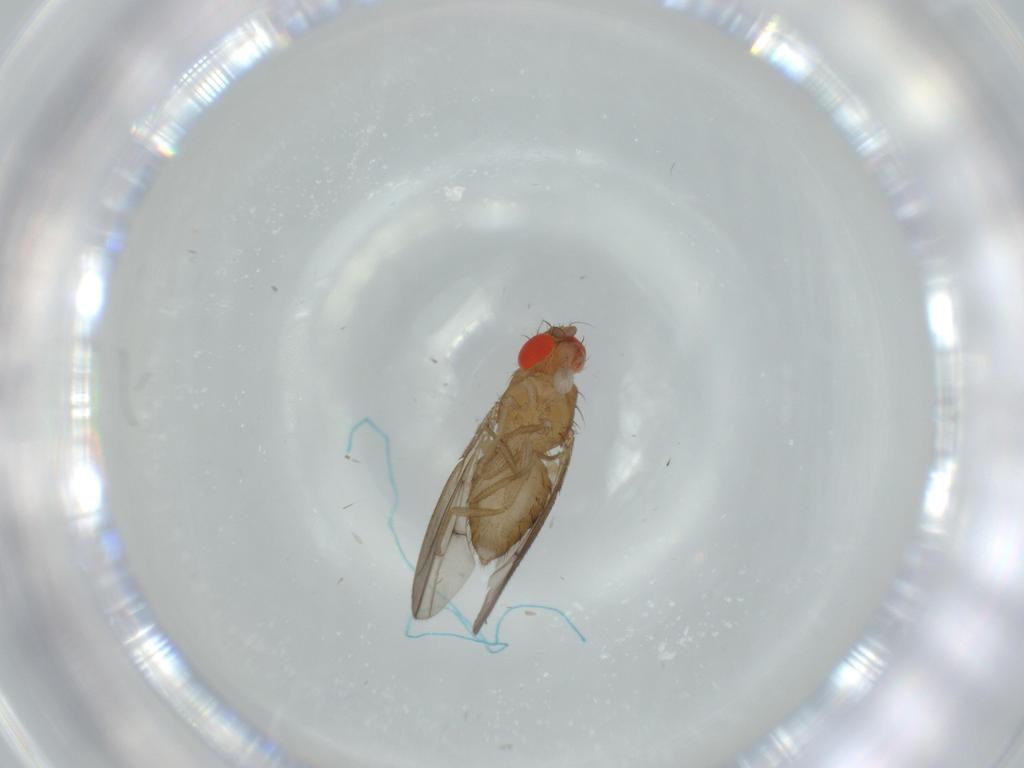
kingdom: Animalia
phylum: Arthropoda
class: Insecta
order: Diptera
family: Drosophilidae
